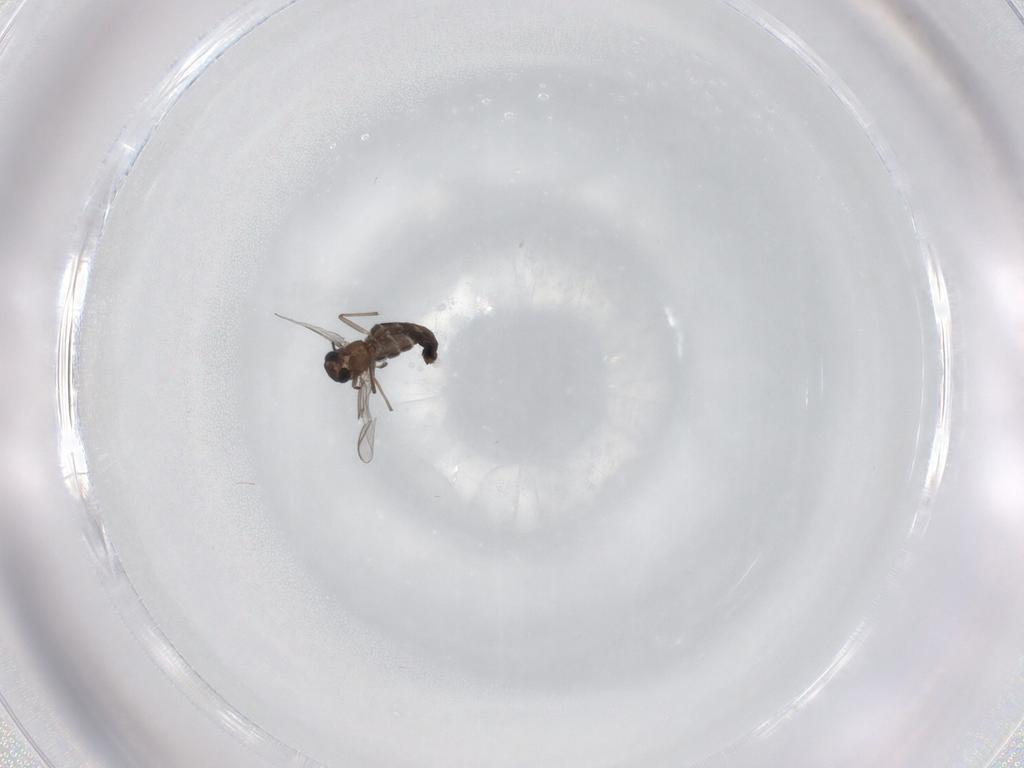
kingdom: Animalia
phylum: Arthropoda
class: Insecta
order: Diptera
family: Chironomidae
